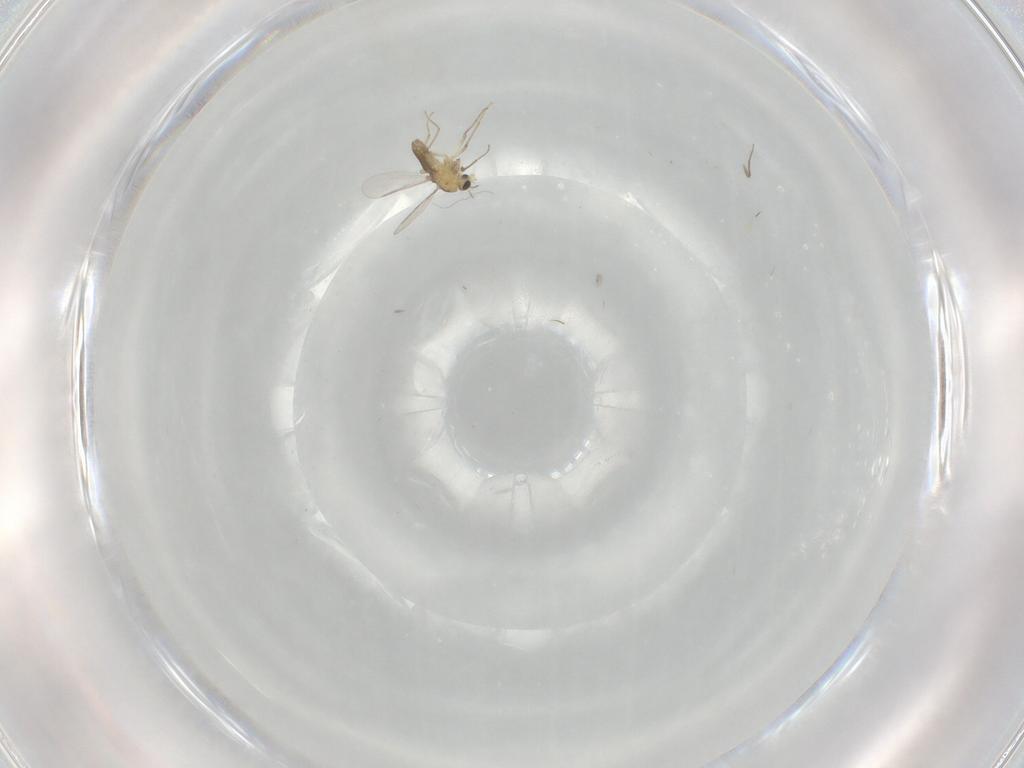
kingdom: Animalia
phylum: Arthropoda
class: Insecta
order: Diptera
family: Chironomidae
